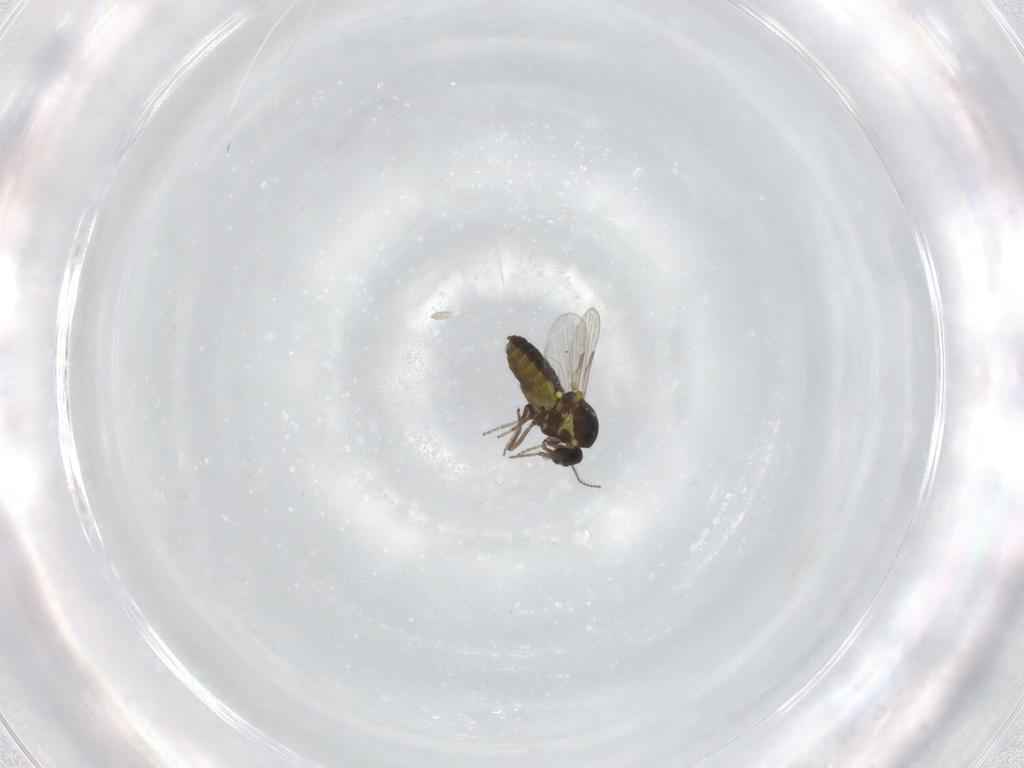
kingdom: Animalia
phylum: Arthropoda
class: Insecta
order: Diptera
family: Ceratopogonidae
